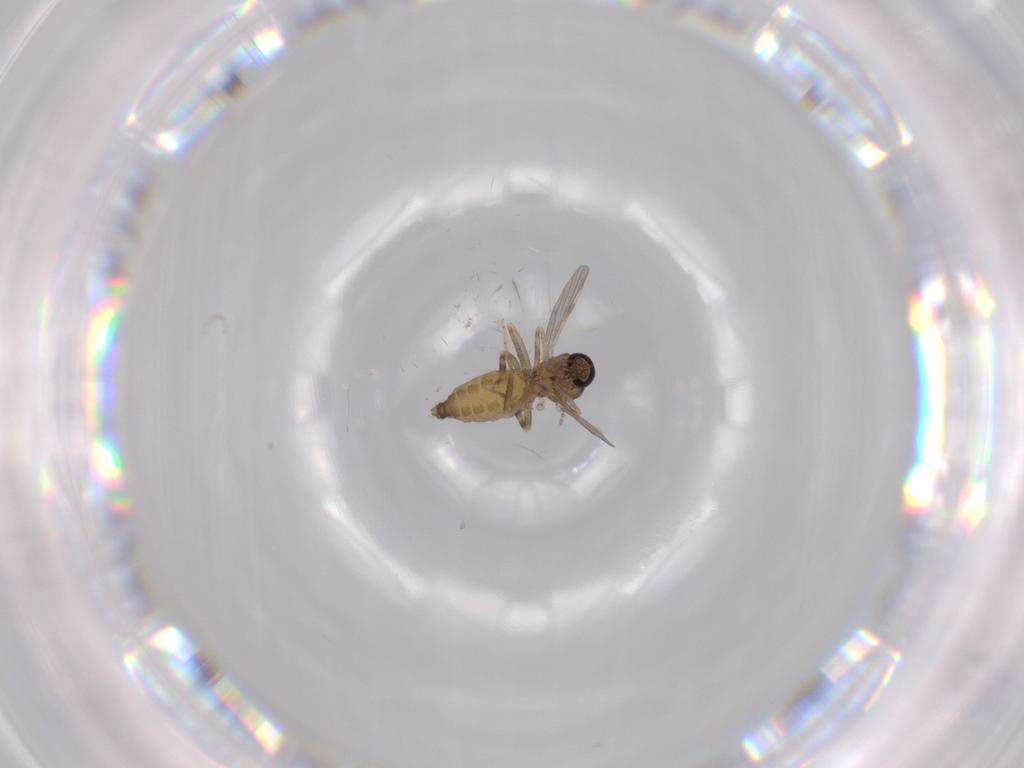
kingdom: Animalia
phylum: Arthropoda
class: Insecta
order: Diptera
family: Ceratopogonidae
